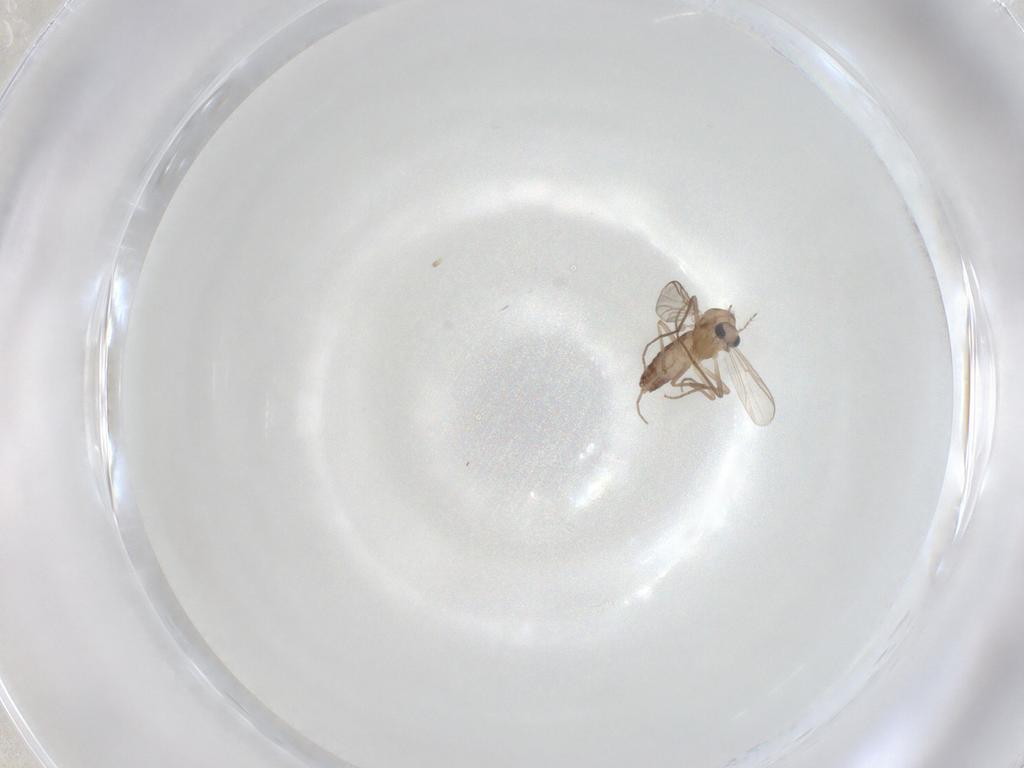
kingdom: Animalia
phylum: Arthropoda
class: Insecta
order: Diptera
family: Chironomidae
